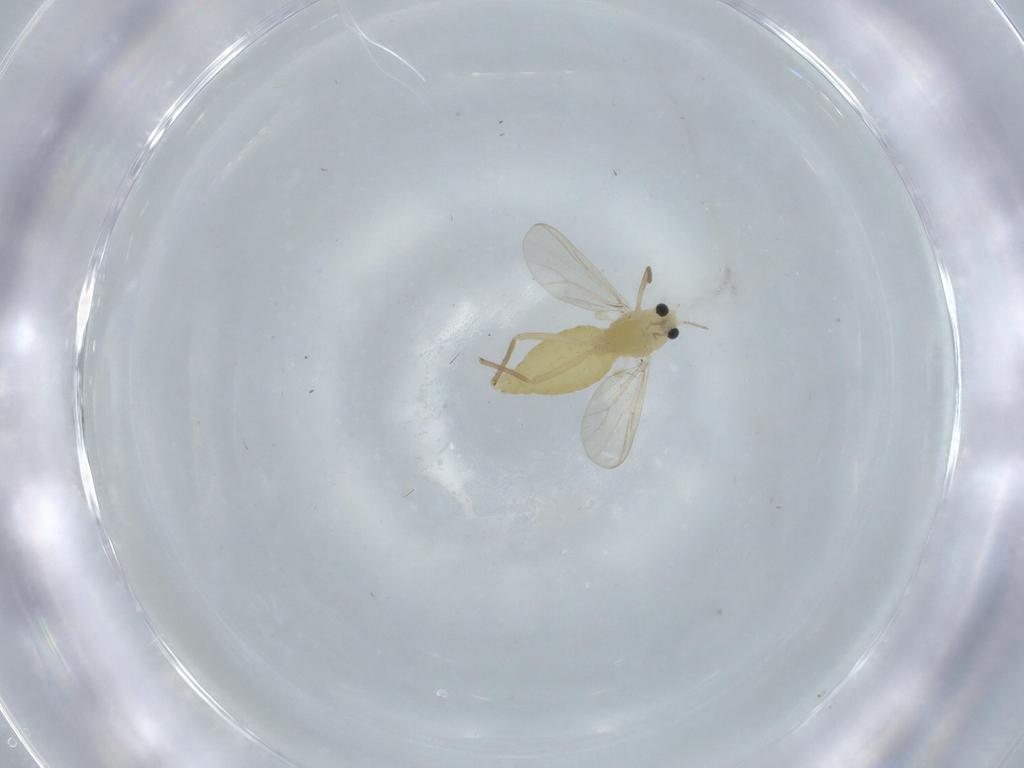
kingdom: Animalia
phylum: Arthropoda
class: Insecta
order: Diptera
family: Chironomidae
